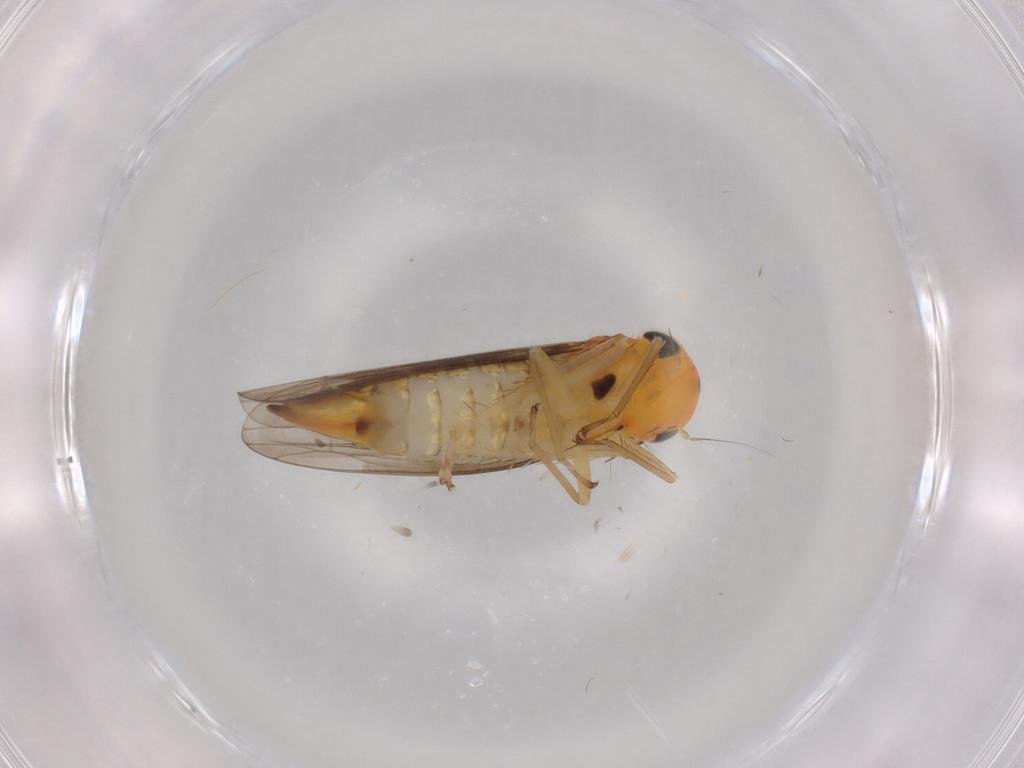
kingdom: Animalia
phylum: Arthropoda
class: Insecta
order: Hemiptera
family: Cicadellidae
